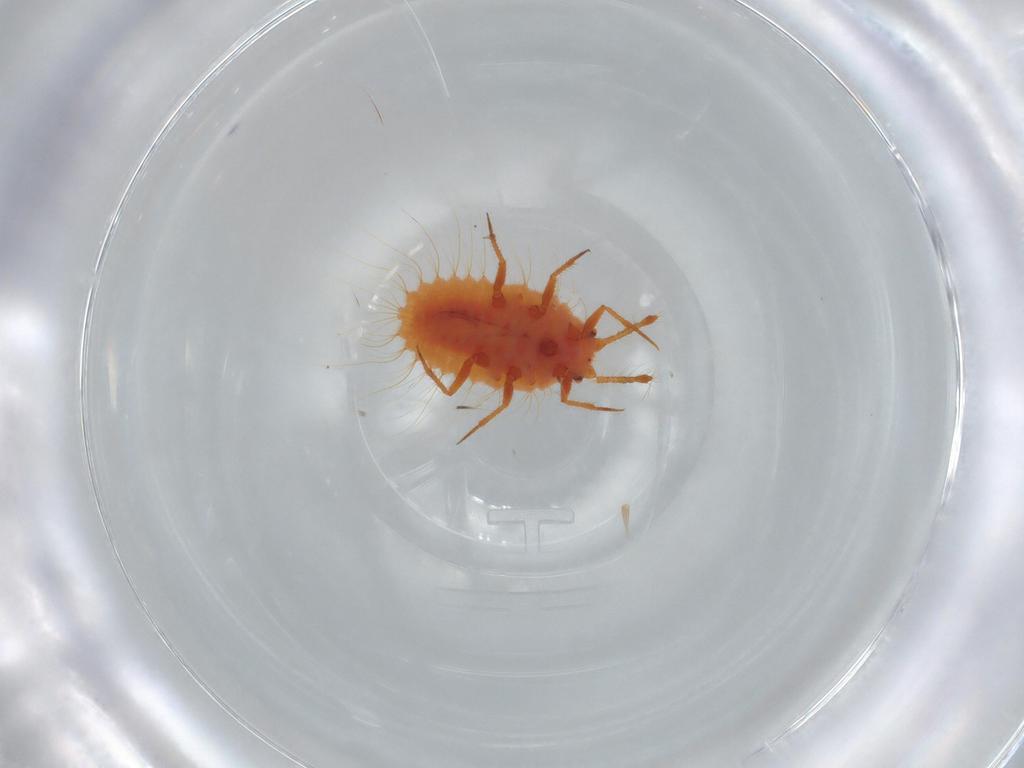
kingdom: Animalia
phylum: Arthropoda
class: Insecta
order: Hemiptera
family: Coccoidea_incertae_sedis
